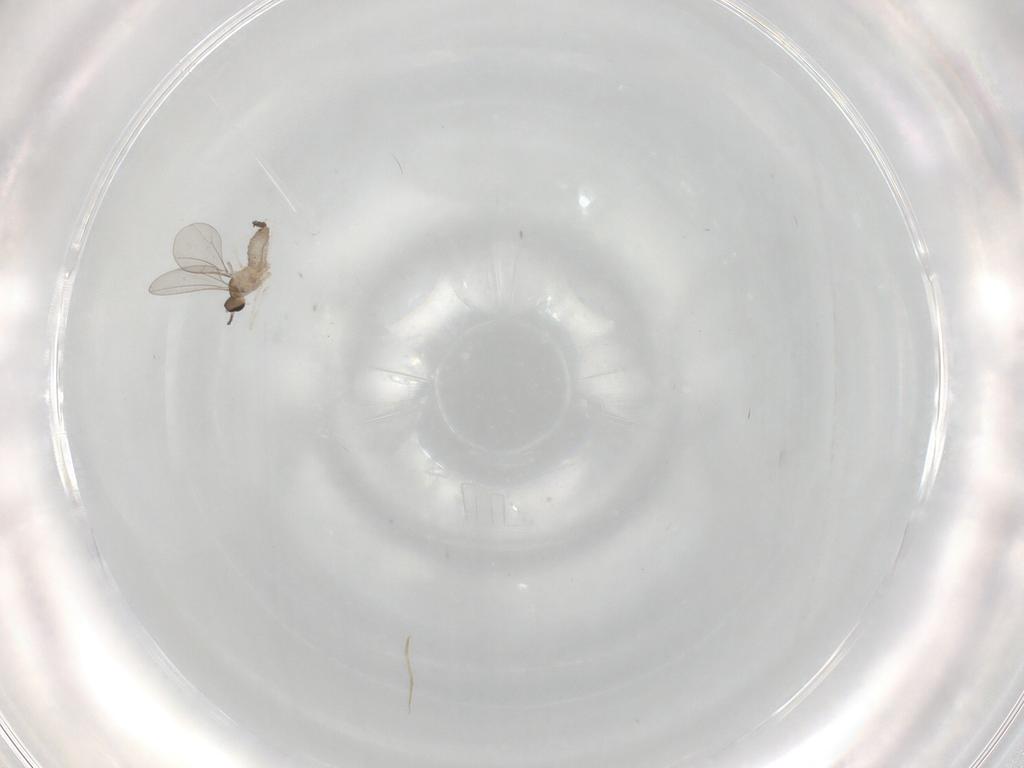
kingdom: Animalia
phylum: Arthropoda
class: Insecta
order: Diptera
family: Cecidomyiidae
